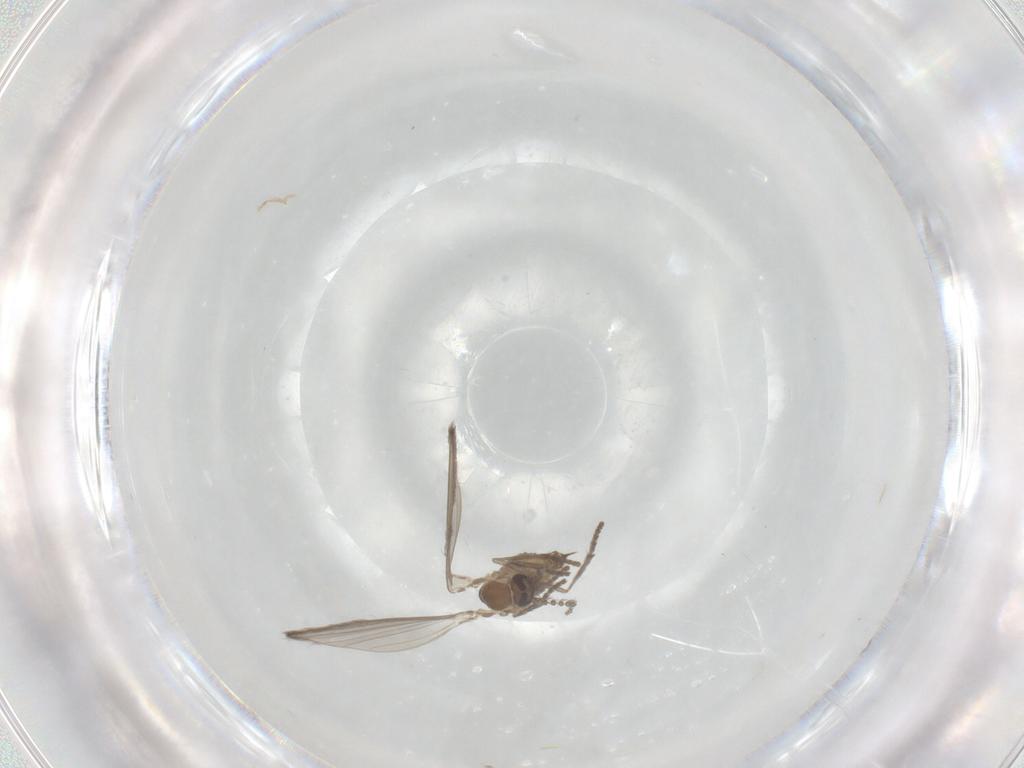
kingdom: Animalia
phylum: Arthropoda
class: Insecta
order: Diptera
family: Psychodidae
